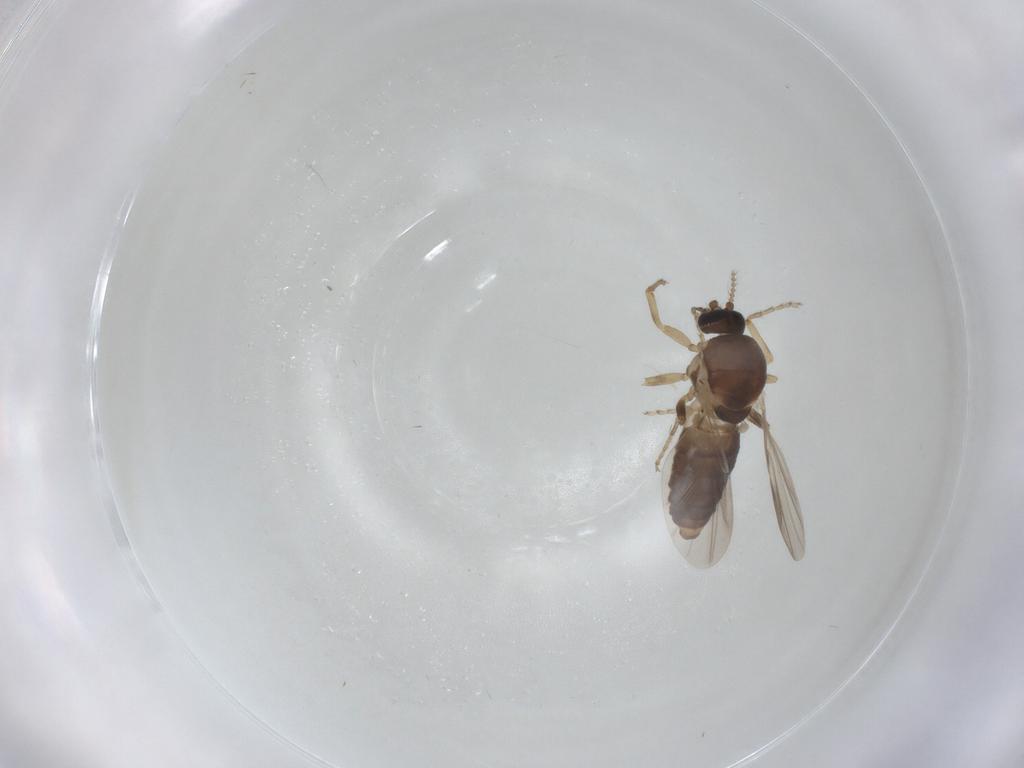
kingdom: Animalia
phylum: Arthropoda
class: Insecta
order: Diptera
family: Ceratopogonidae
